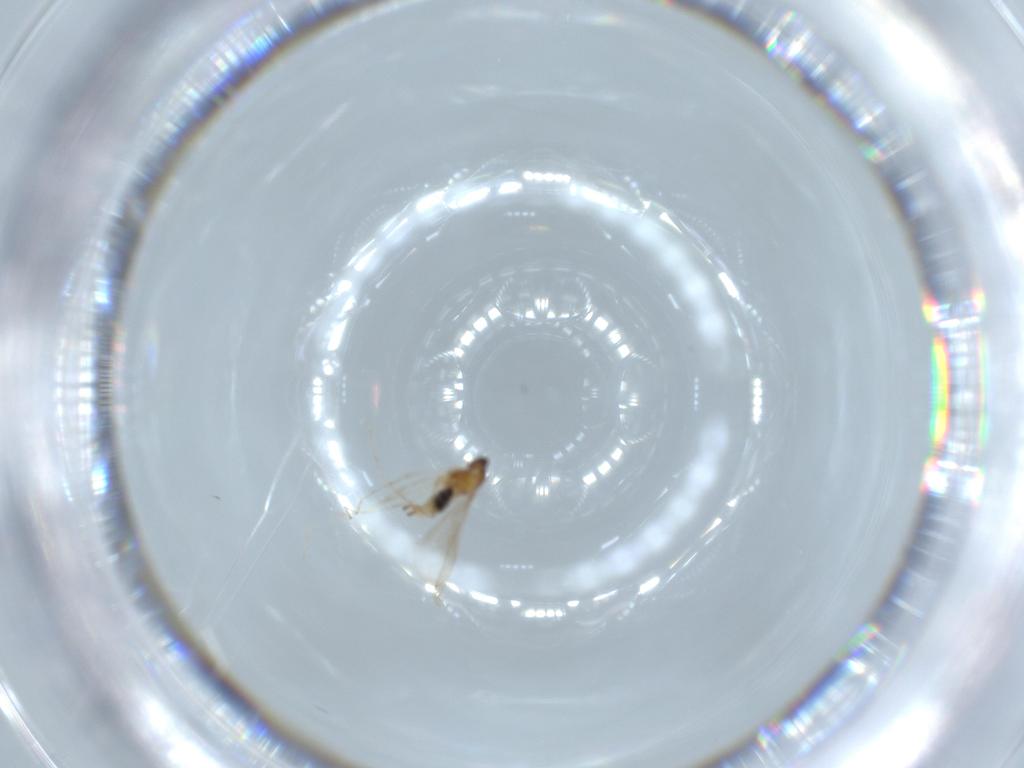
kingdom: Animalia
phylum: Arthropoda
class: Insecta
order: Diptera
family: Cecidomyiidae
